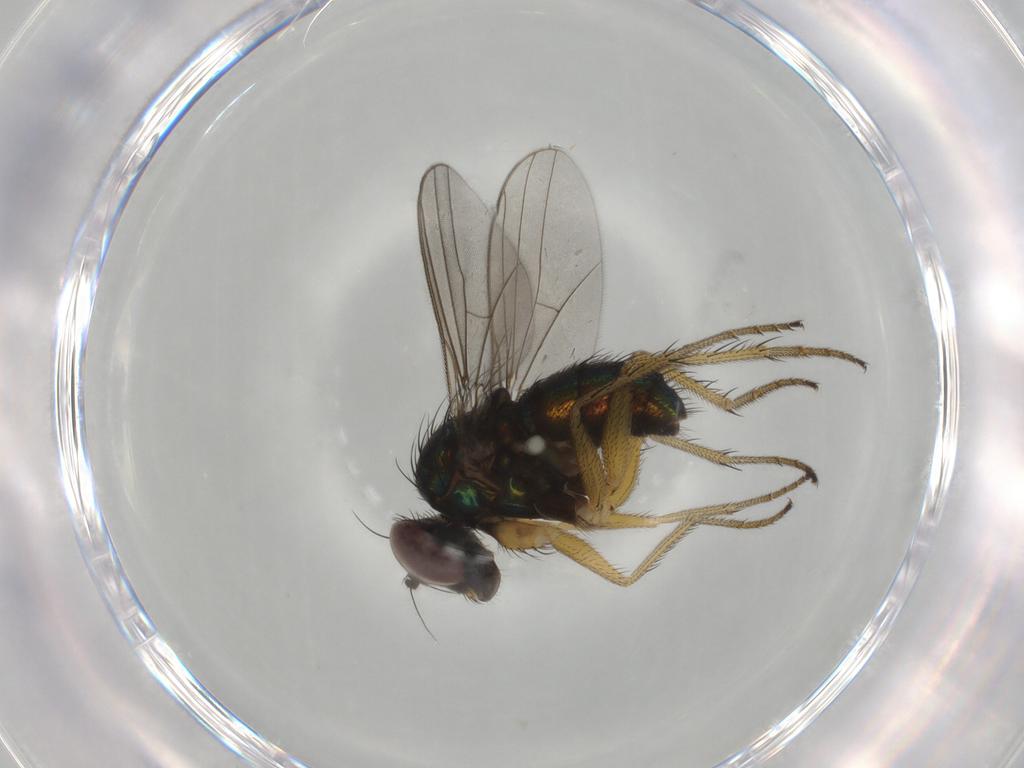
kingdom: Animalia
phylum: Arthropoda
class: Insecta
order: Diptera
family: Dolichopodidae
